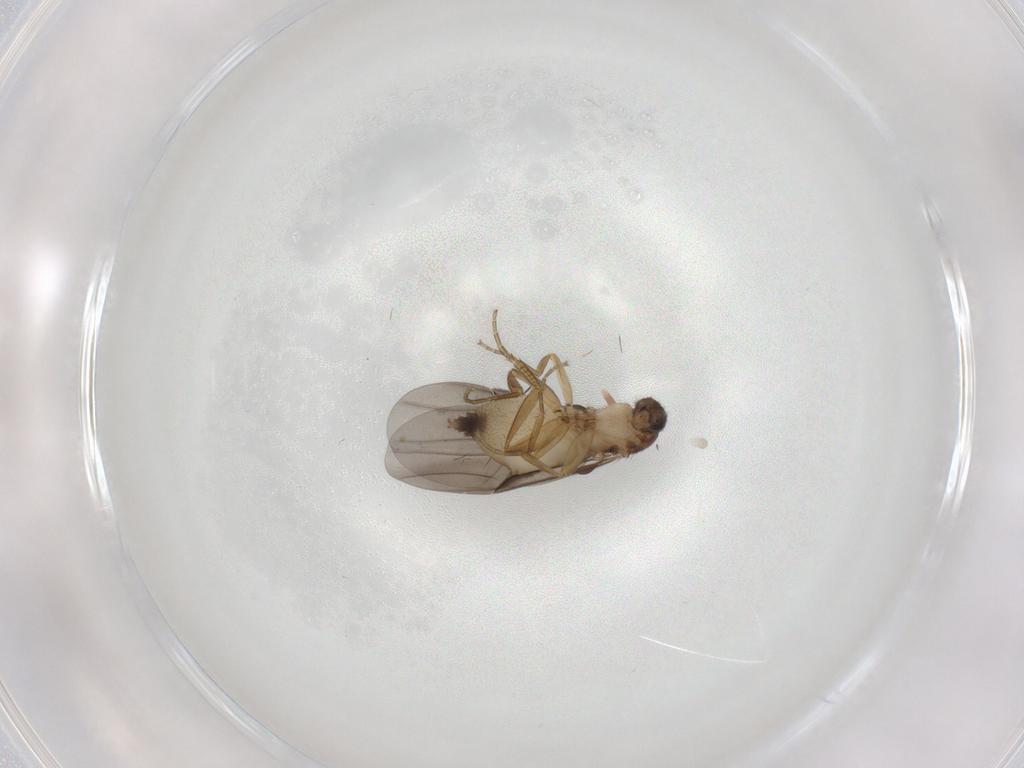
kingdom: Animalia
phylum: Arthropoda
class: Insecta
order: Diptera
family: Phoridae
